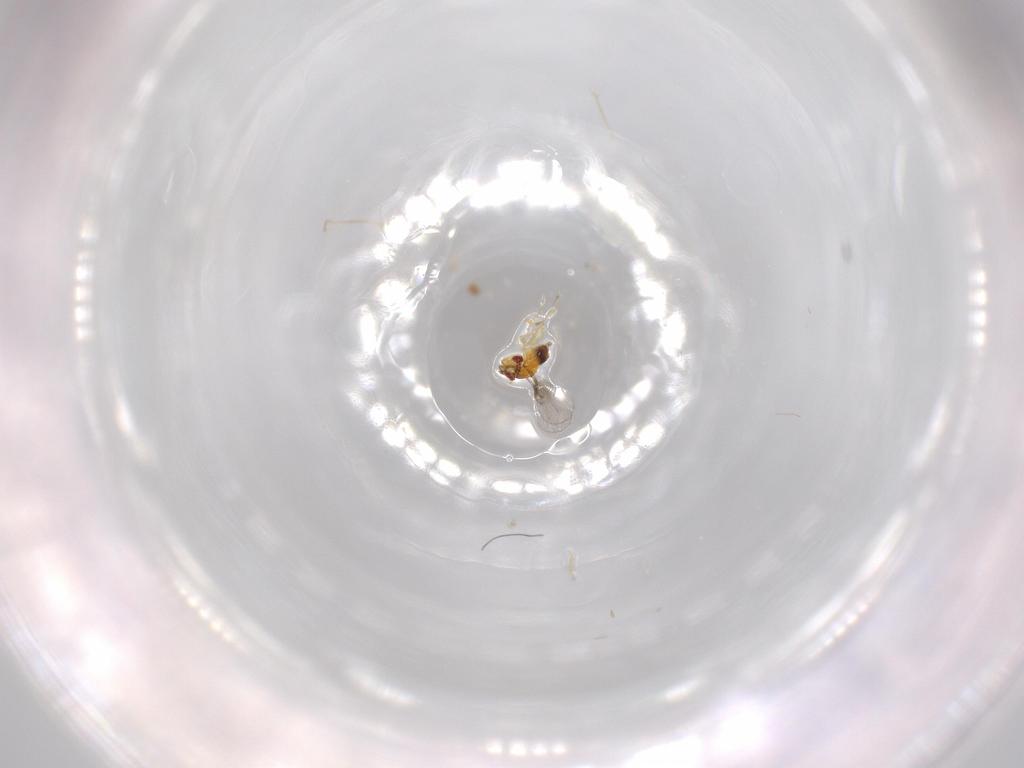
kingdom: Animalia
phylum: Arthropoda
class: Insecta
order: Hymenoptera
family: Trichogrammatidae
